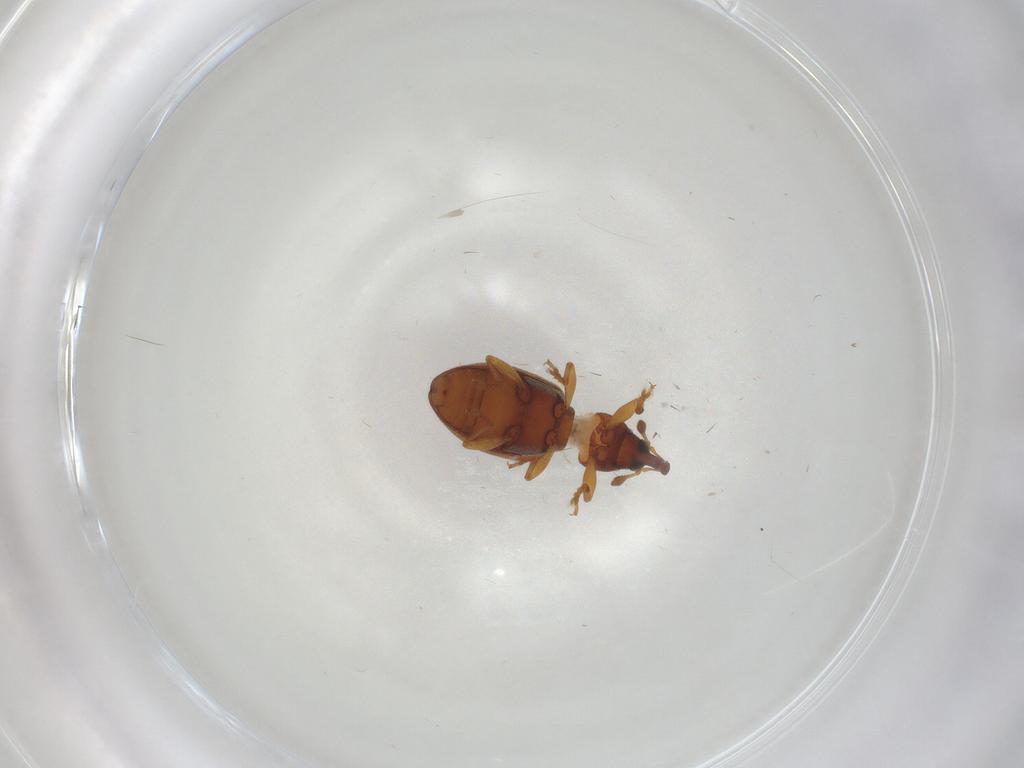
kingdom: Animalia
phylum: Arthropoda
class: Insecta
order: Coleoptera
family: Curculionidae
